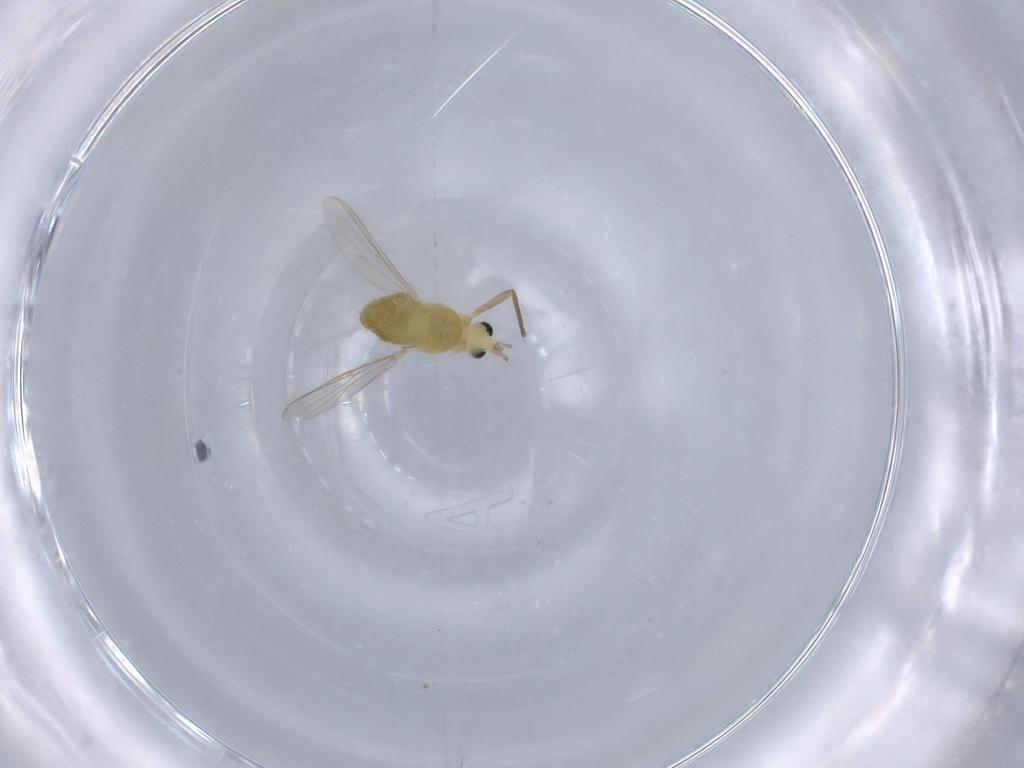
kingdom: Animalia
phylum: Arthropoda
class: Insecta
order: Diptera
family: Chironomidae
